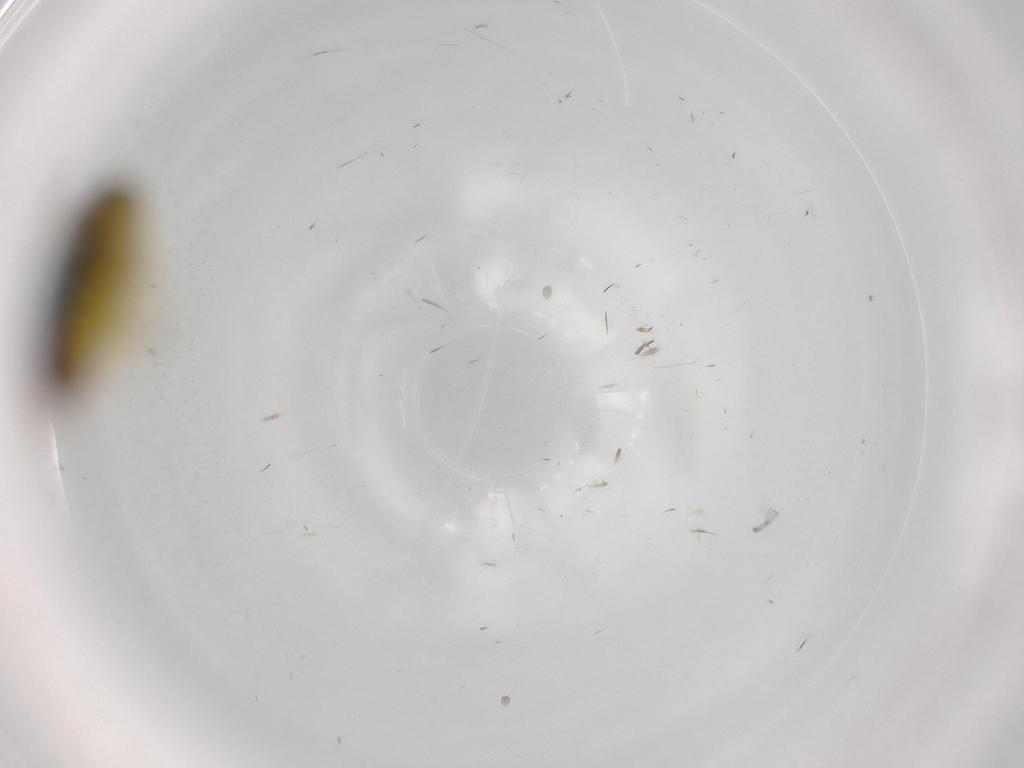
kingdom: Animalia
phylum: Arthropoda
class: Insecta
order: Hemiptera
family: Cicadellidae
